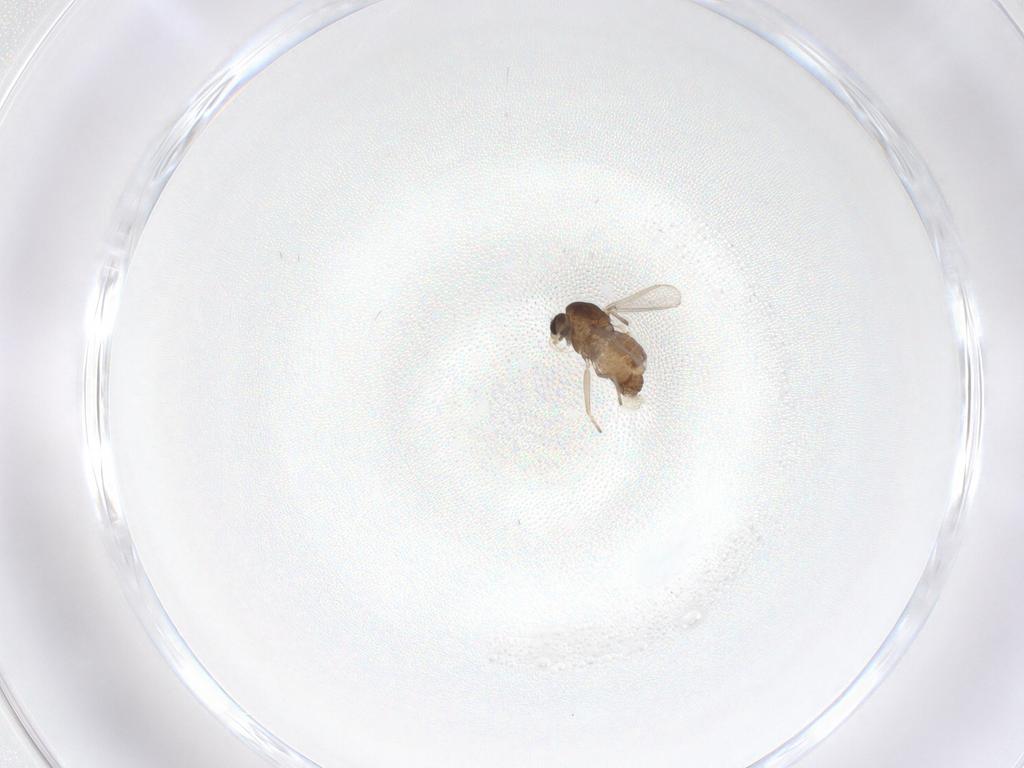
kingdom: Animalia
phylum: Arthropoda
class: Insecta
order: Diptera
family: Chironomidae
